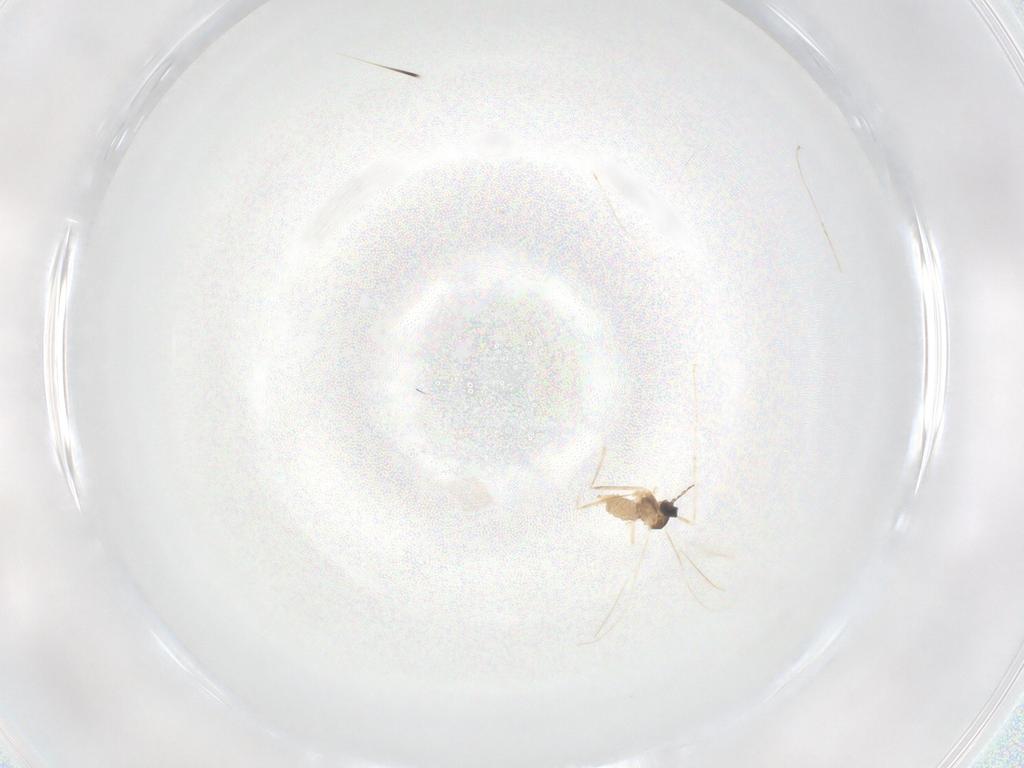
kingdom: Animalia
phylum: Arthropoda
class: Insecta
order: Diptera
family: Cecidomyiidae
